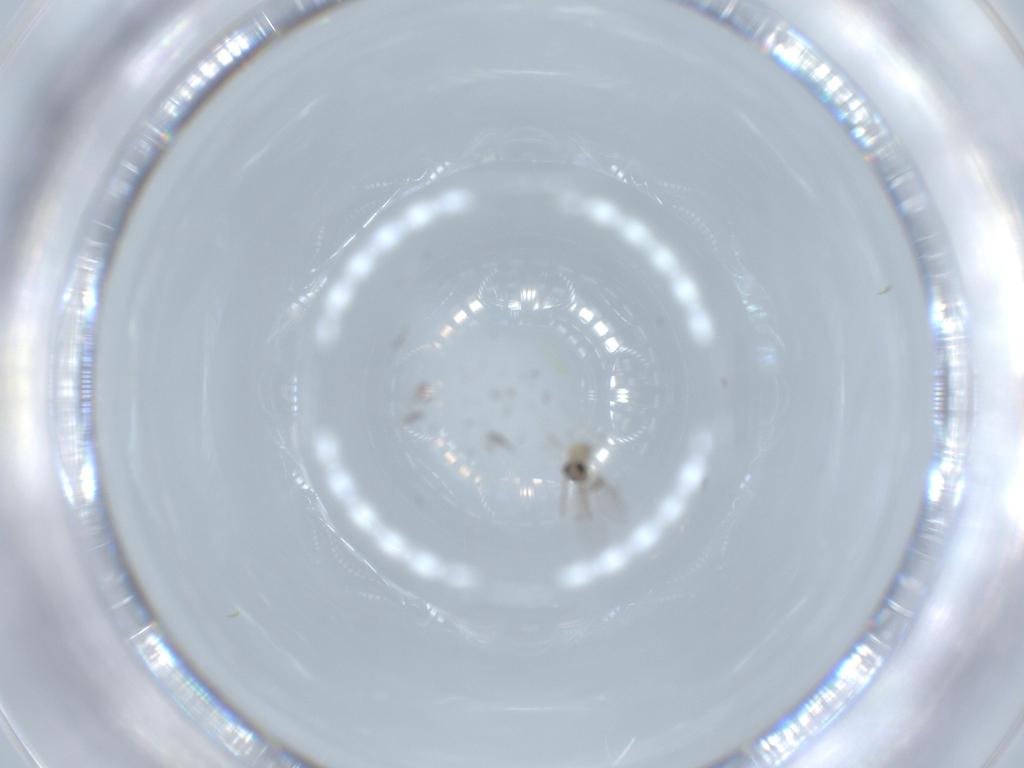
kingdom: Animalia
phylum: Arthropoda
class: Insecta
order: Diptera
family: Cecidomyiidae
